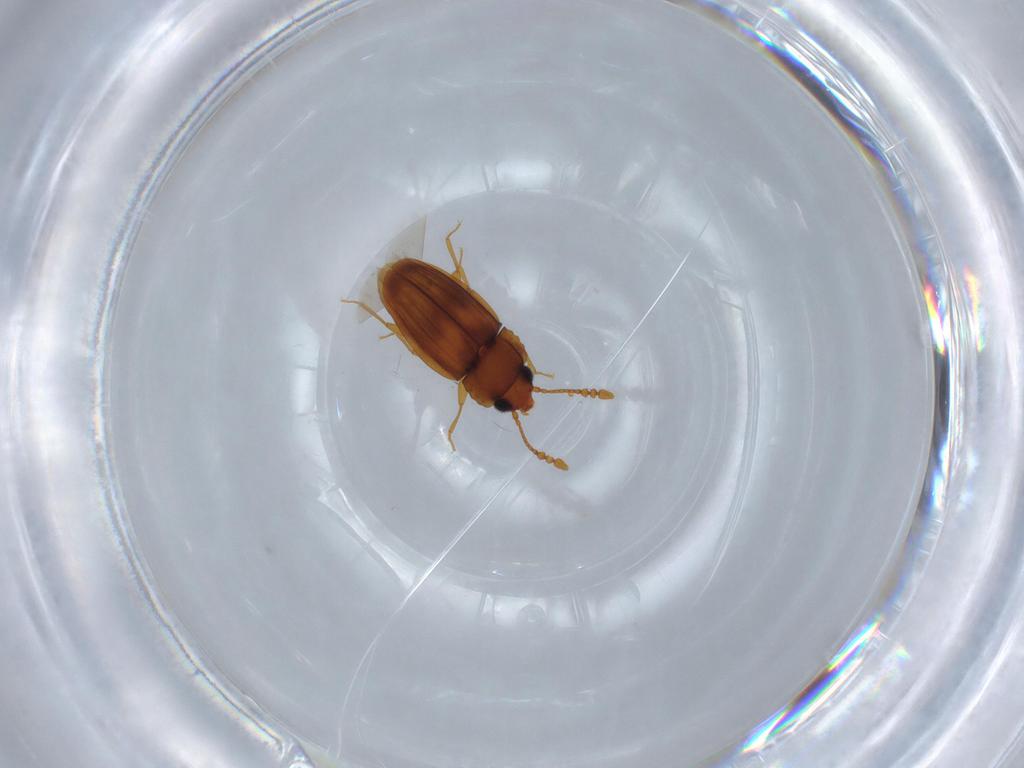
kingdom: Animalia
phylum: Arthropoda
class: Insecta
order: Coleoptera
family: Laemophloeidae
